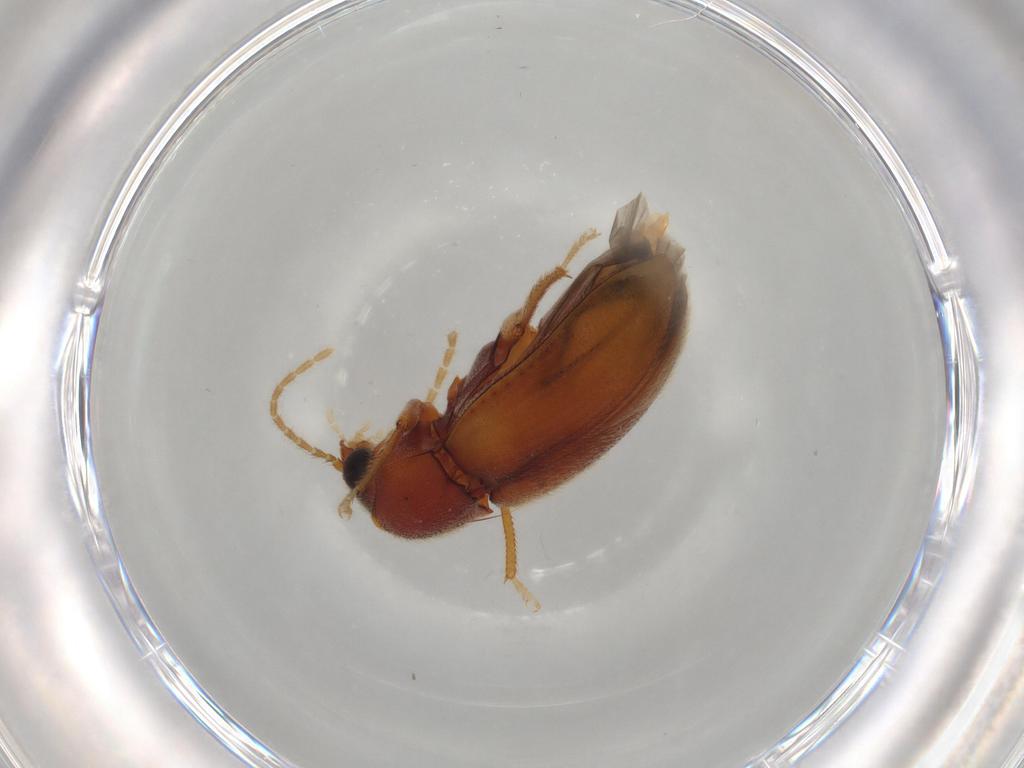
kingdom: Animalia
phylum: Arthropoda
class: Insecta
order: Coleoptera
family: Ptilodactylidae
